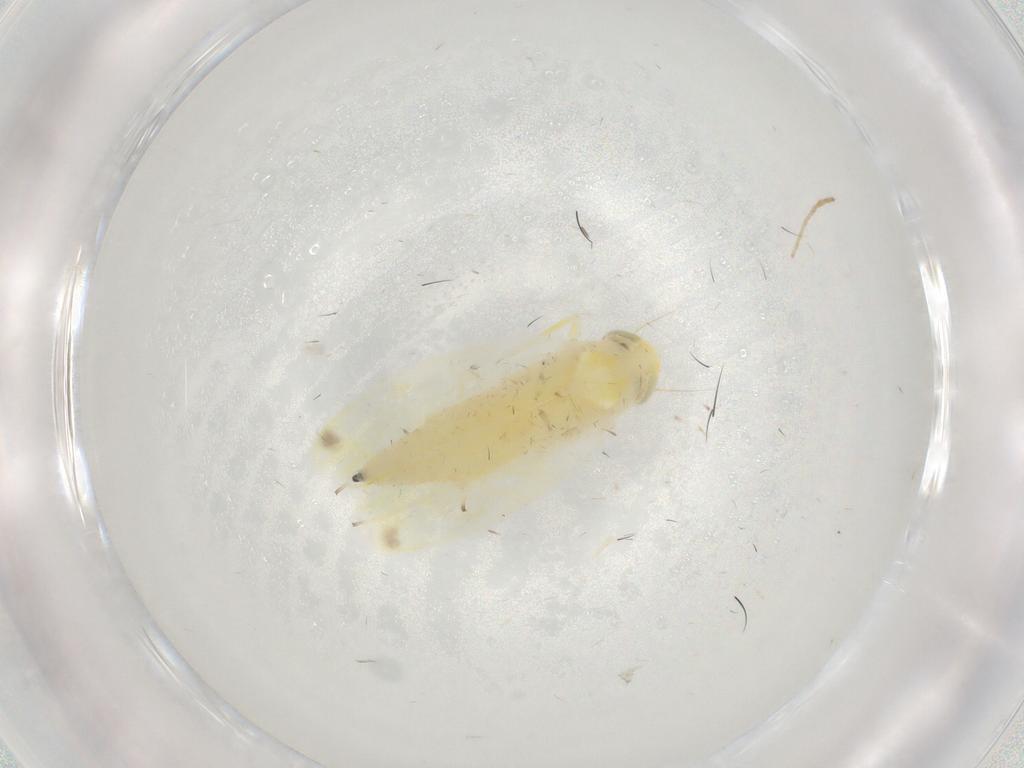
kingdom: Animalia
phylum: Arthropoda
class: Insecta
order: Hemiptera
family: Cicadellidae
